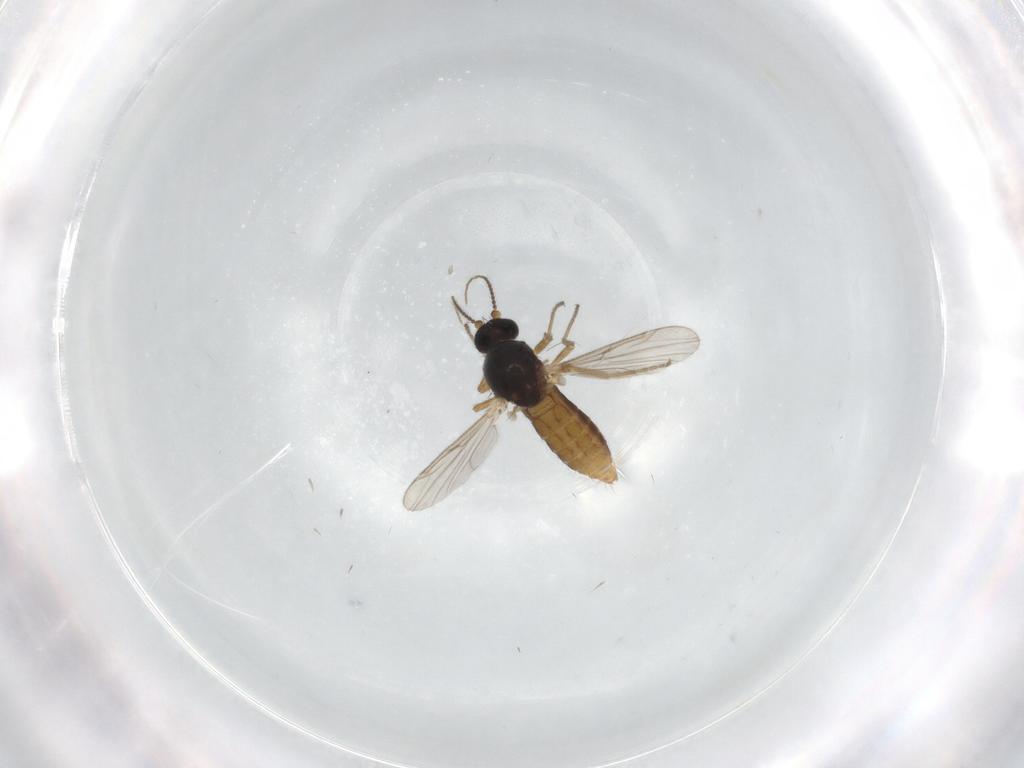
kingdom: Animalia
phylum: Arthropoda
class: Insecta
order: Diptera
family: Ceratopogonidae
